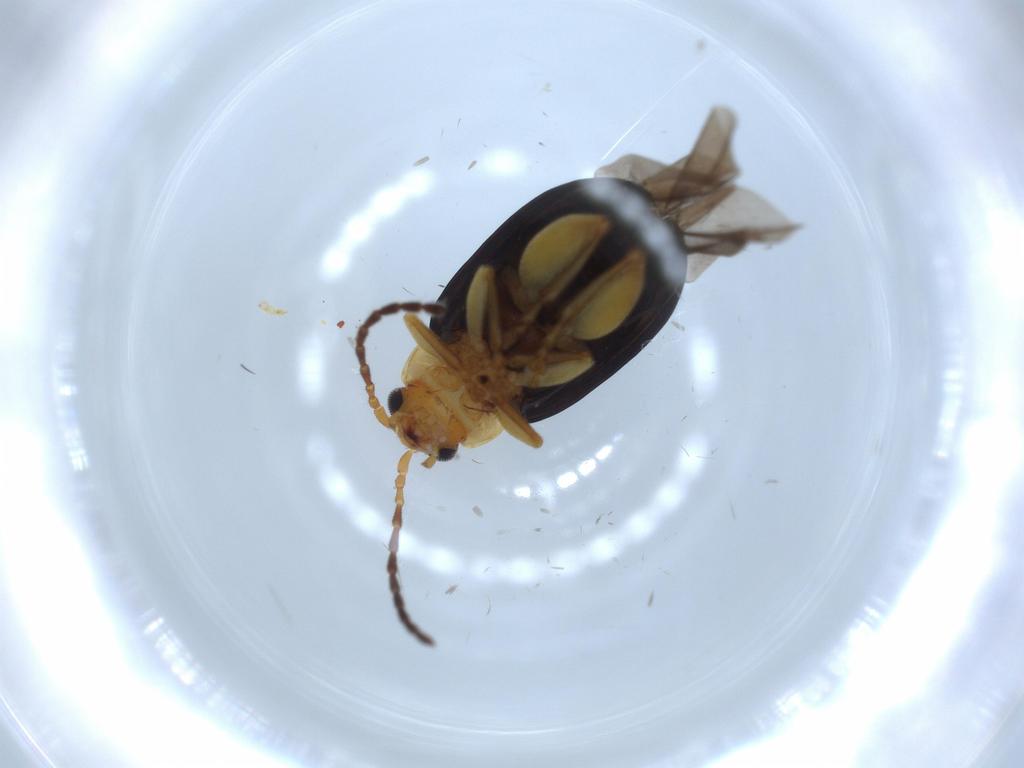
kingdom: Animalia
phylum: Arthropoda
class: Insecta
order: Coleoptera
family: Chrysomelidae
